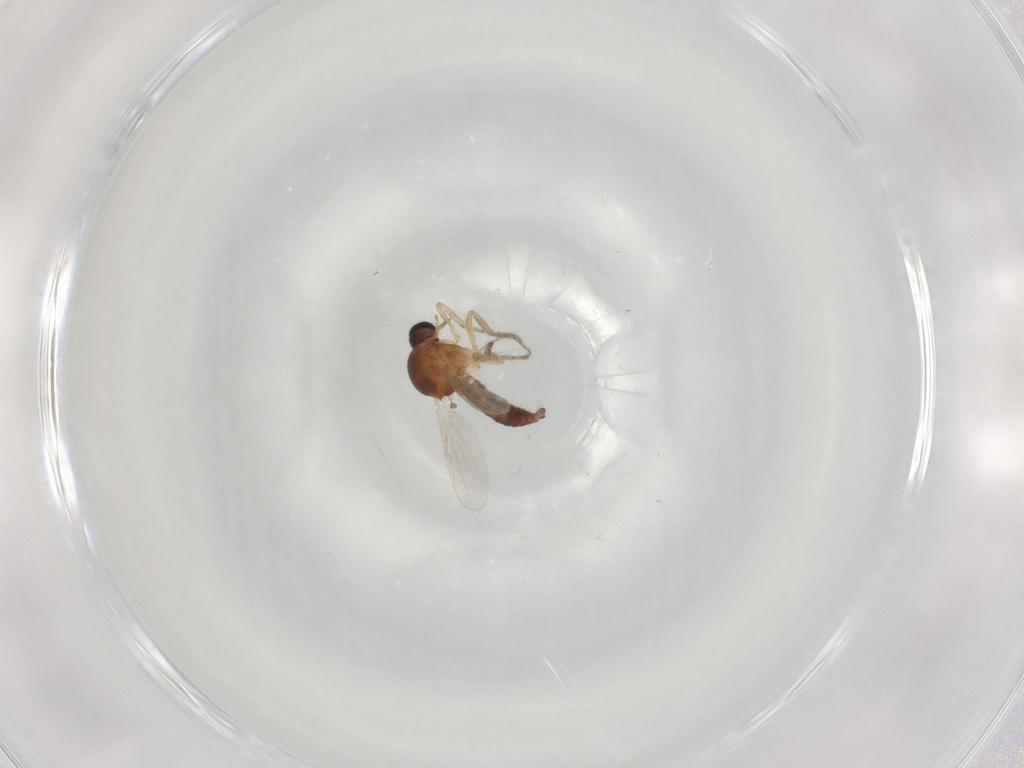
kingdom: Animalia
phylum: Arthropoda
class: Insecta
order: Diptera
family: Ceratopogonidae
